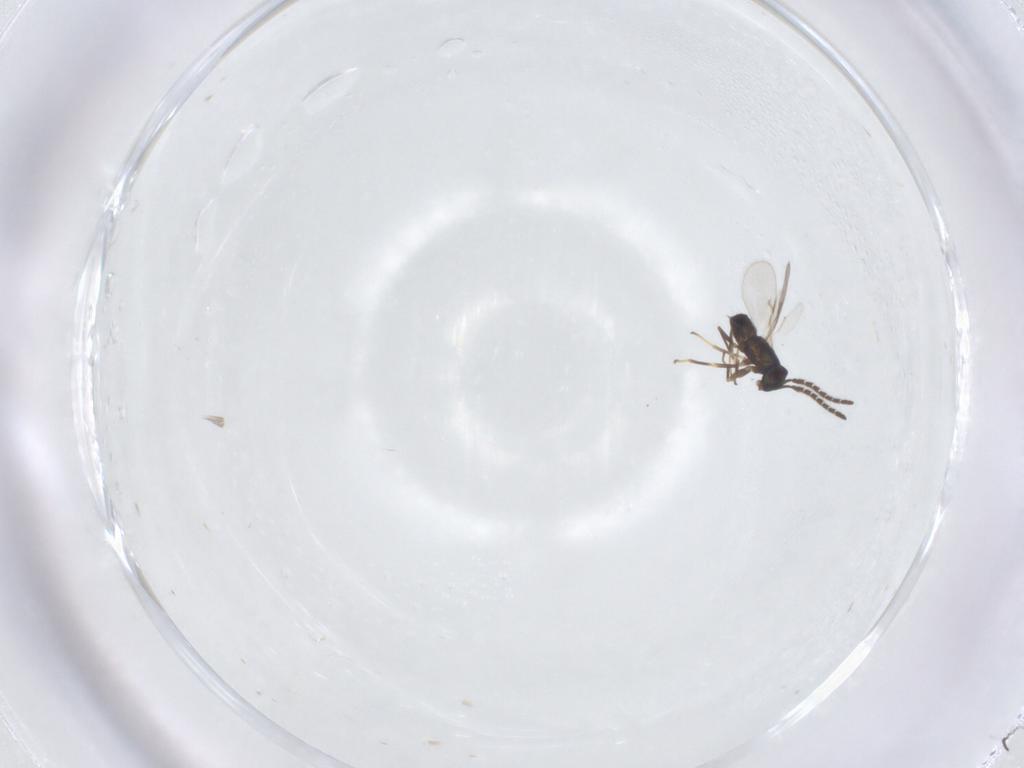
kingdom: Animalia
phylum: Arthropoda
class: Insecta
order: Hymenoptera
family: Encyrtidae
